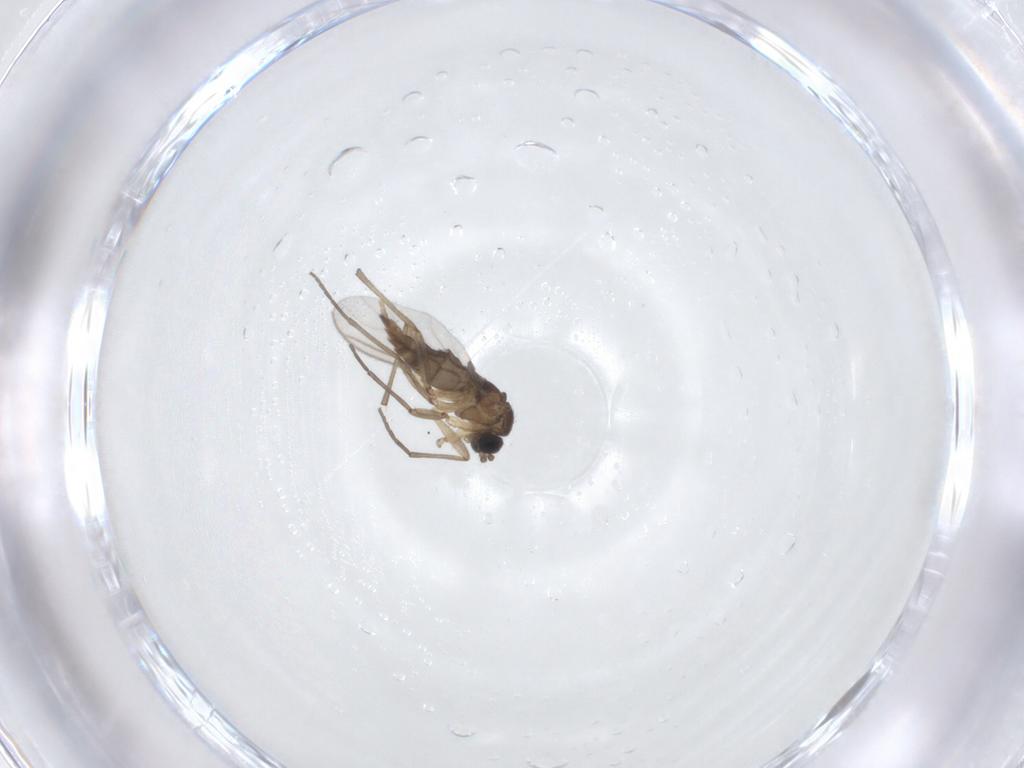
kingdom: Animalia
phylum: Arthropoda
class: Insecta
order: Diptera
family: Sciaridae
